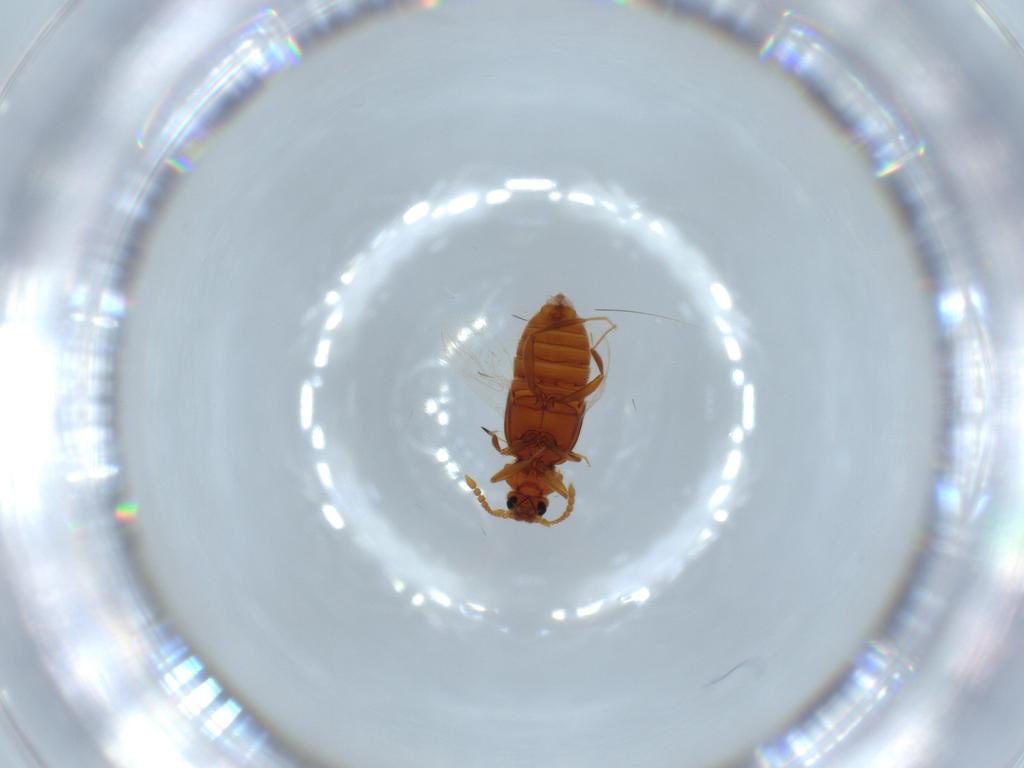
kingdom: Animalia
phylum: Arthropoda
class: Insecta
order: Coleoptera
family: Staphylinidae
